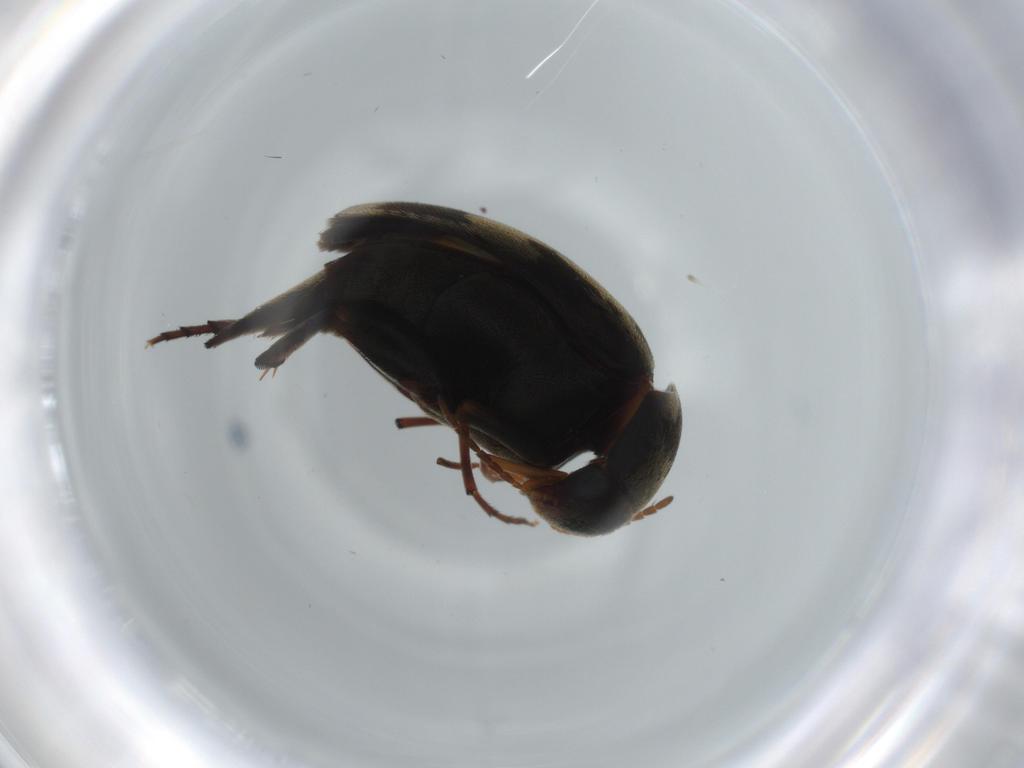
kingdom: Animalia
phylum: Arthropoda
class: Insecta
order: Coleoptera
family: Mordellidae
